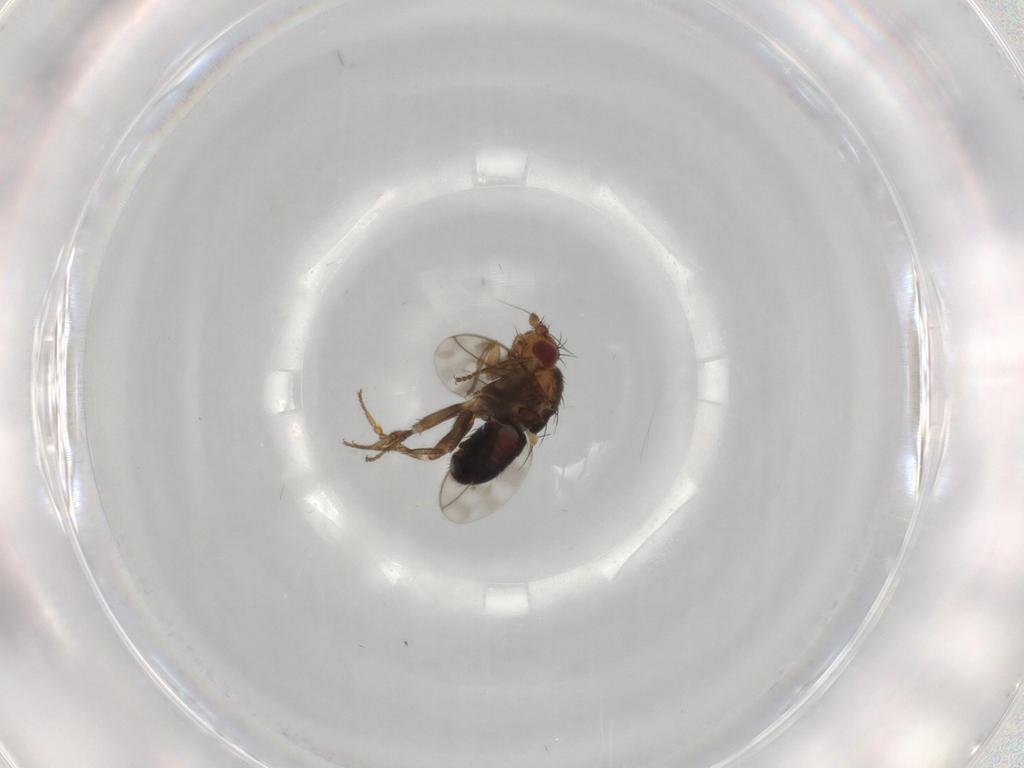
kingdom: Animalia
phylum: Arthropoda
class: Insecta
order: Diptera
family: Sphaeroceridae
